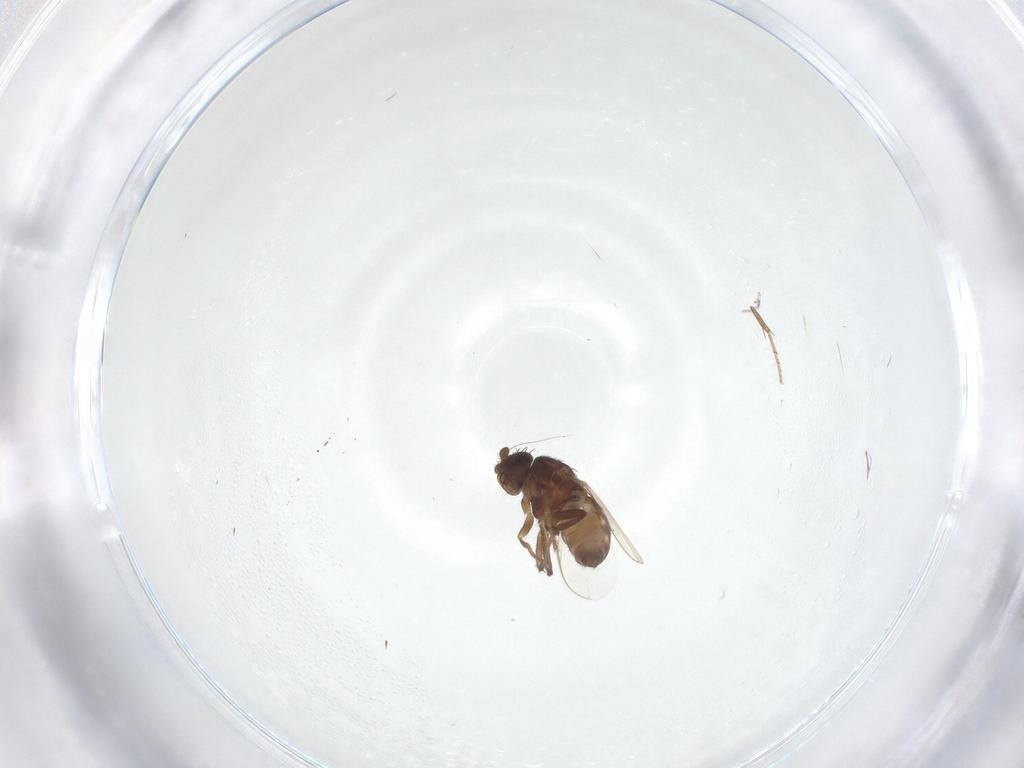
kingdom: Animalia
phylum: Arthropoda
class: Insecta
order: Diptera
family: Sphaeroceridae
